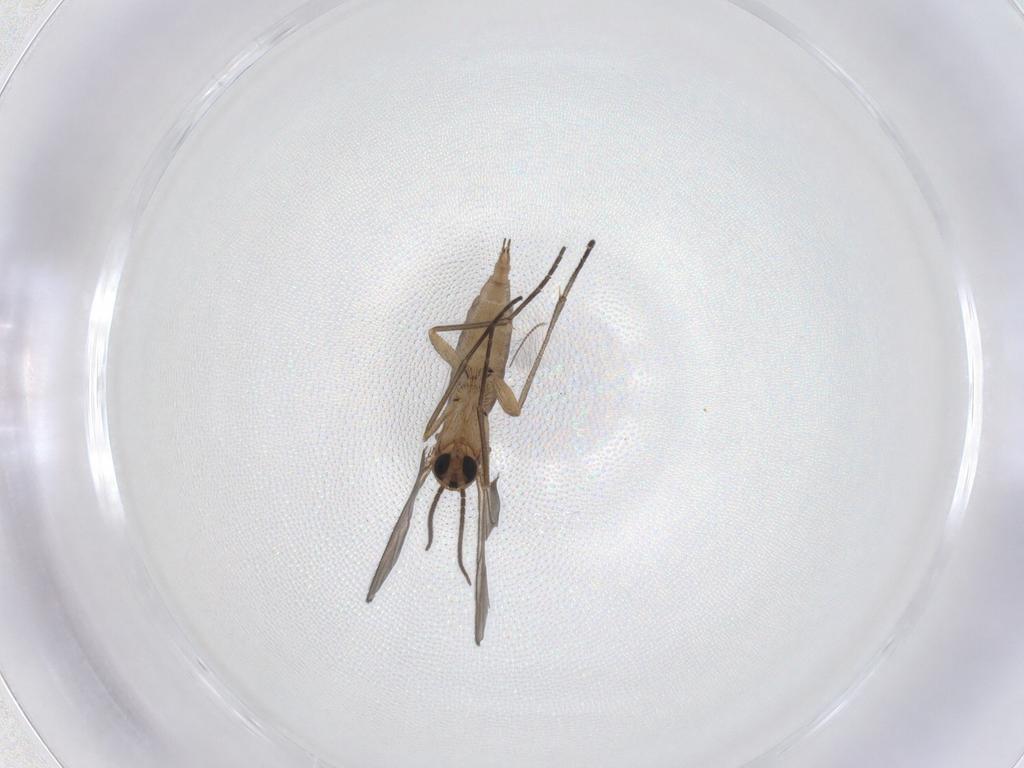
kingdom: Animalia
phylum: Arthropoda
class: Insecta
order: Diptera
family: Sciaridae
